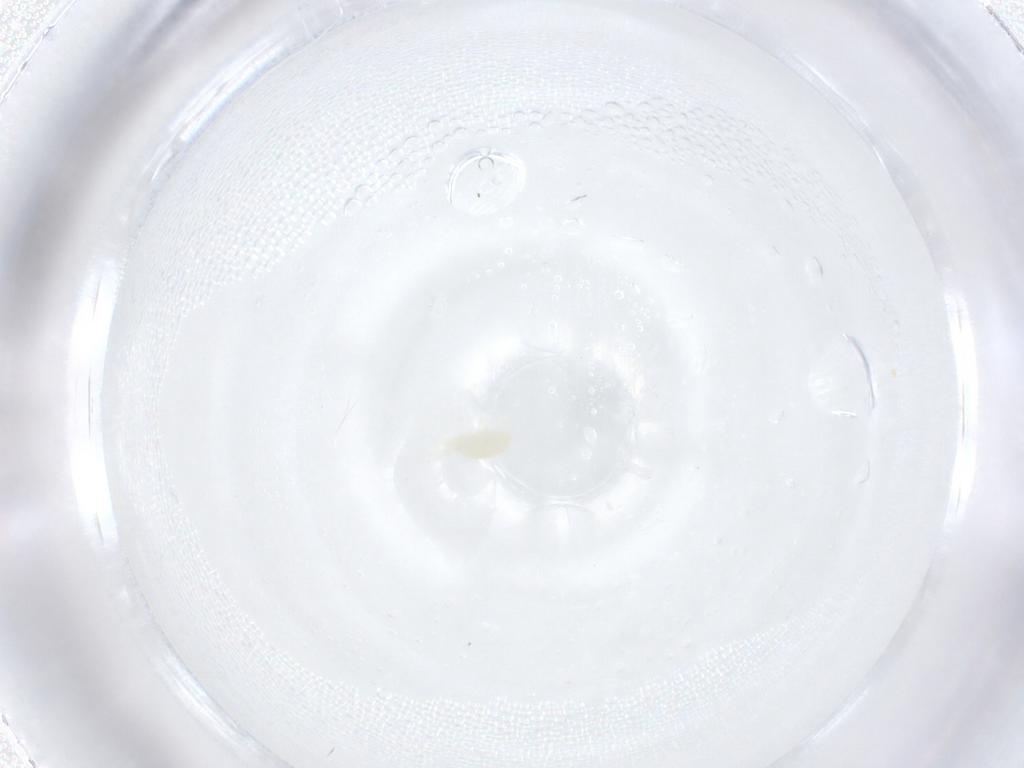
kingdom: Animalia
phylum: Arthropoda
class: Arachnida
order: Trombidiformes
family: Stigmaeidae
